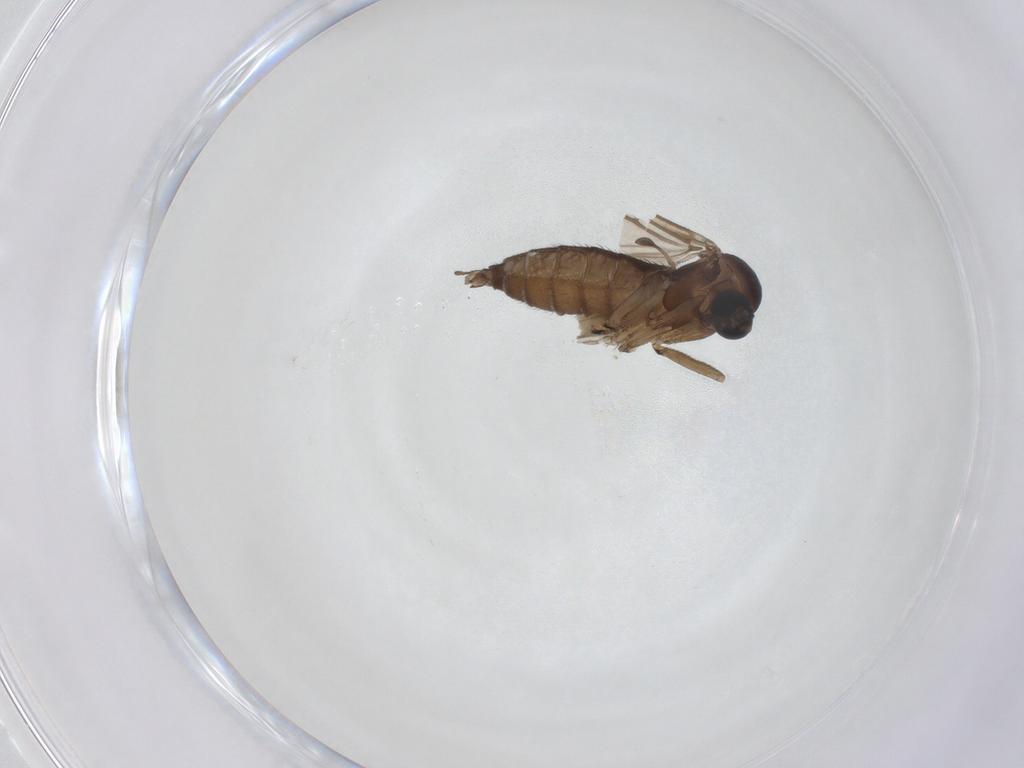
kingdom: Animalia
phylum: Arthropoda
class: Insecta
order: Diptera
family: Sciaridae
